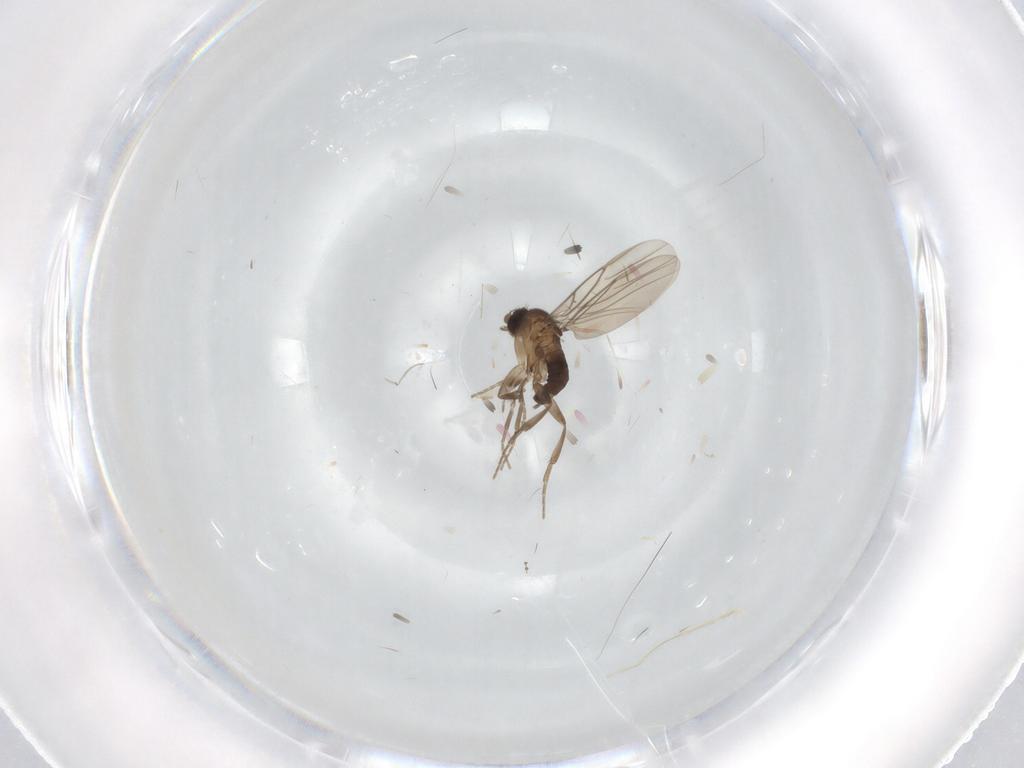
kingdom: Animalia
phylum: Arthropoda
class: Insecta
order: Diptera
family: Phoridae
